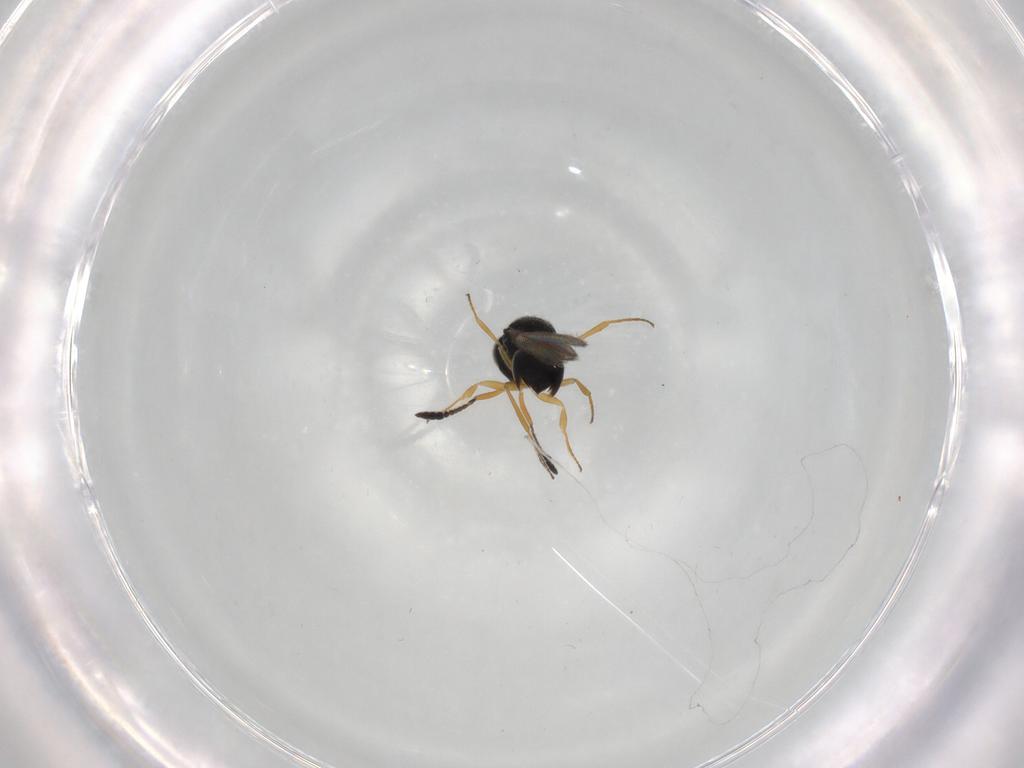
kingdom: Animalia
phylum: Arthropoda
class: Insecta
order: Hymenoptera
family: Scelionidae
